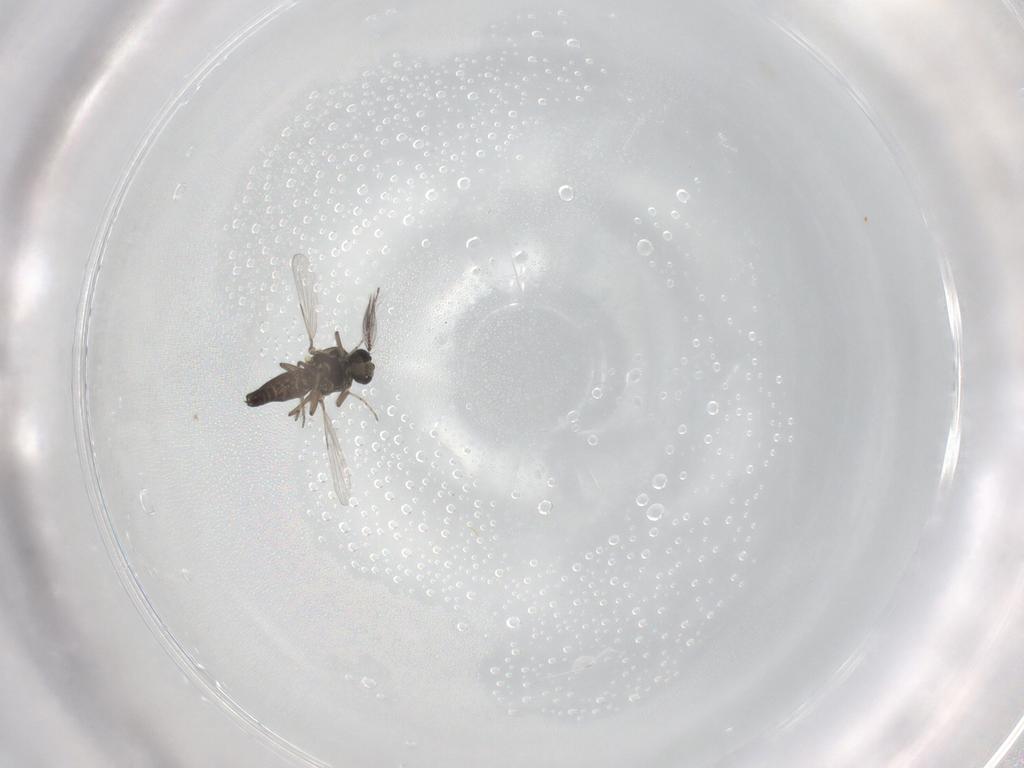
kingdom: Animalia
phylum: Arthropoda
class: Insecta
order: Diptera
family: Ceratopogonidae
